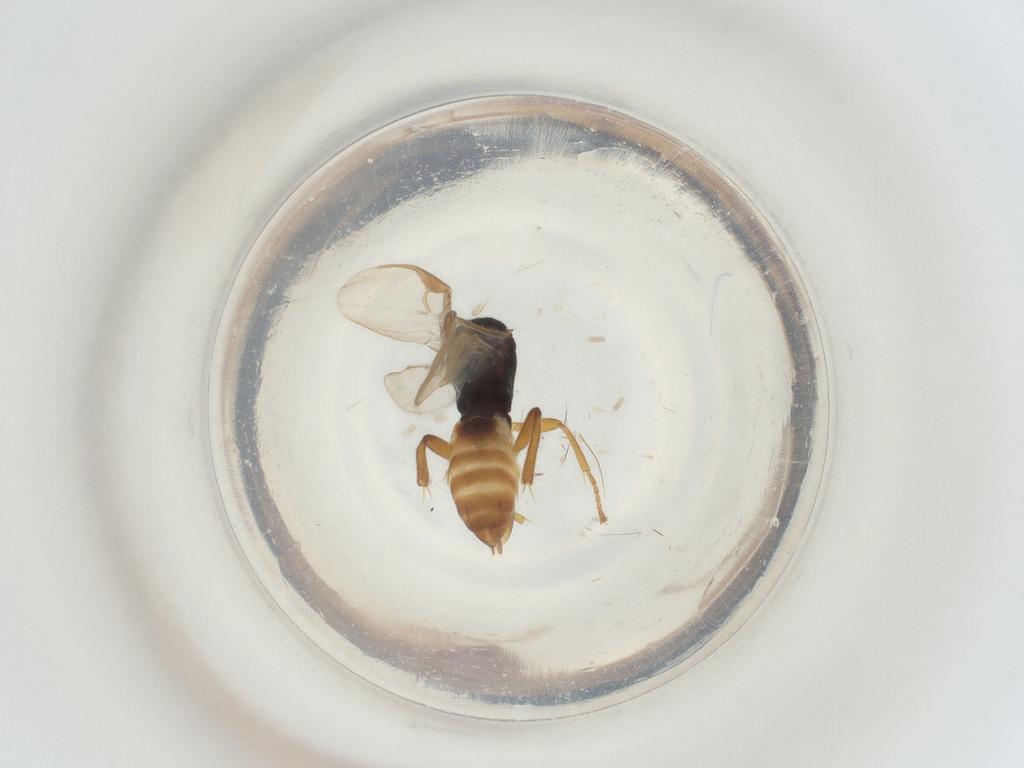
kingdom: Animalia
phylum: Arthropoda
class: Insecta
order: Hymenoptera
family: Braconidae
